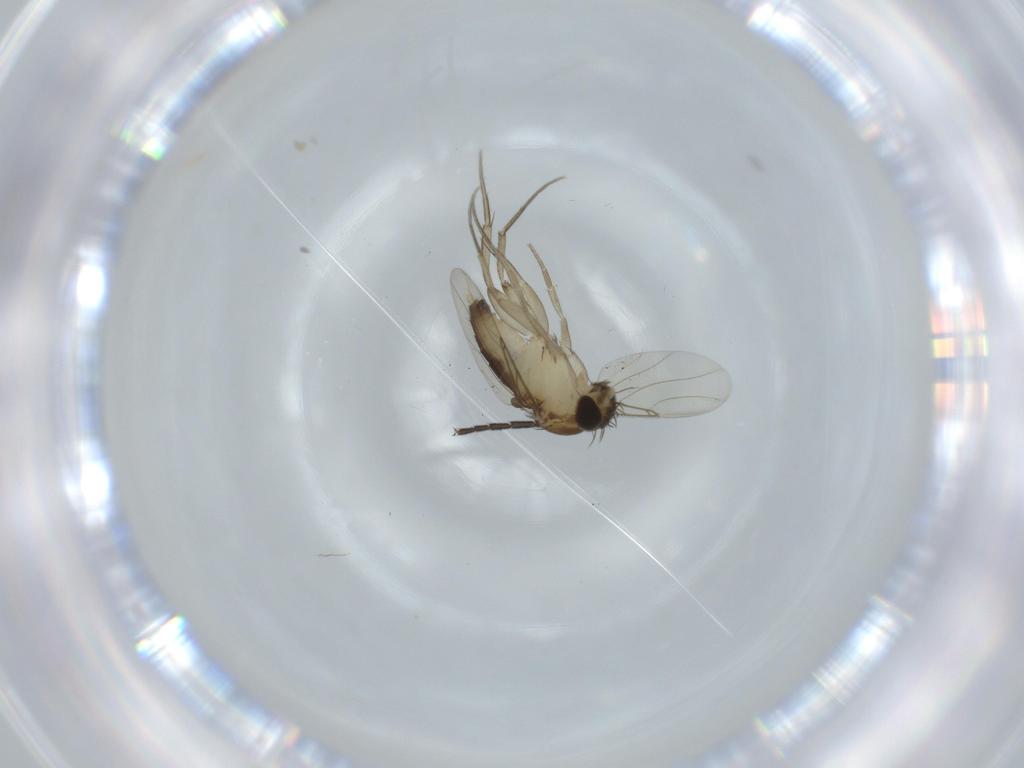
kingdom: Animalia
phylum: Arthropoda
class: Insecta
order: Diptera
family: Phoridae
